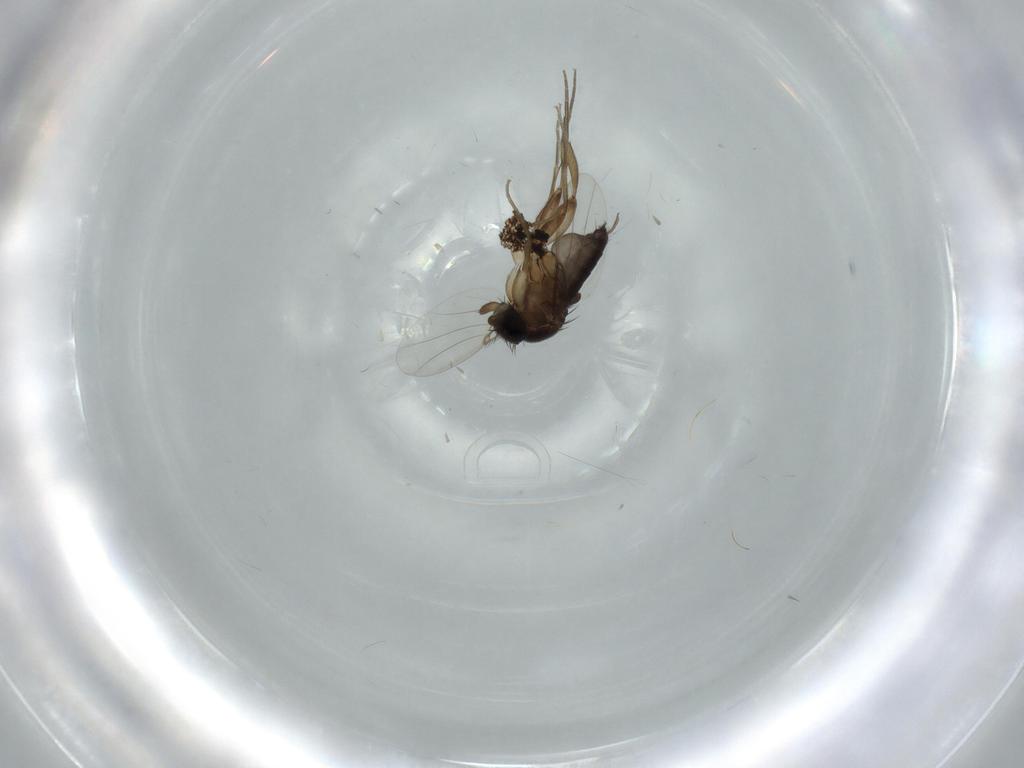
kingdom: Animalia
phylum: Arthropoda
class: Insecta
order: Diptera
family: Phoridae
